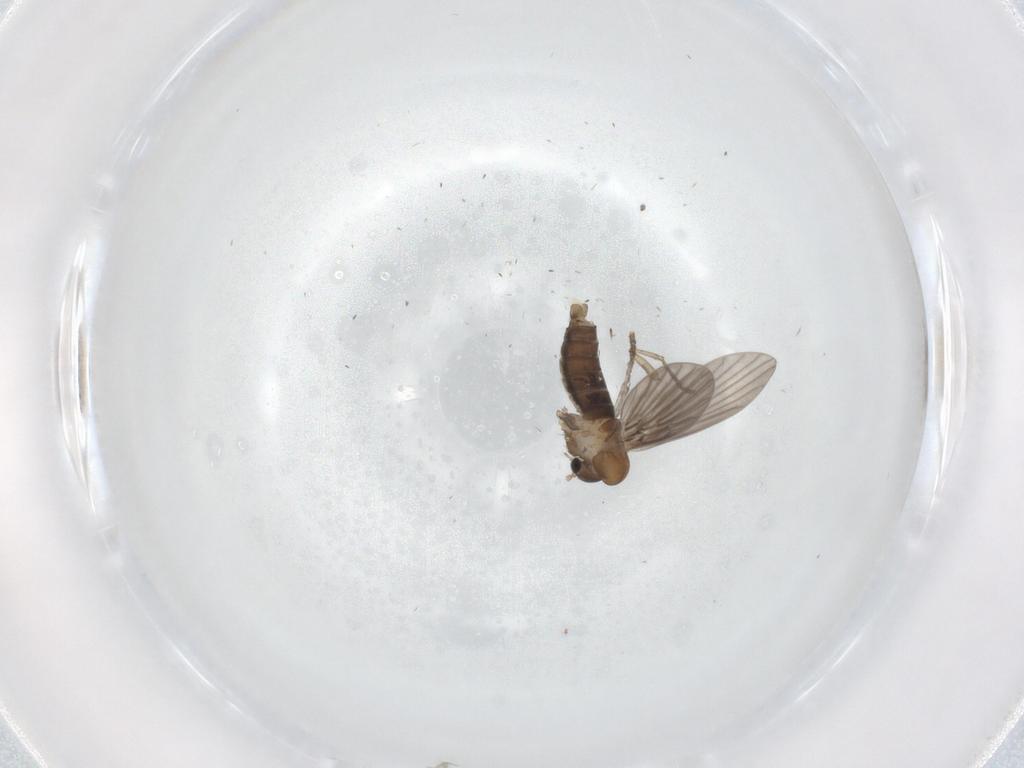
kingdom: Animalia
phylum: Arthropoda
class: Insecta
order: Diptera
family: Psychodidae
